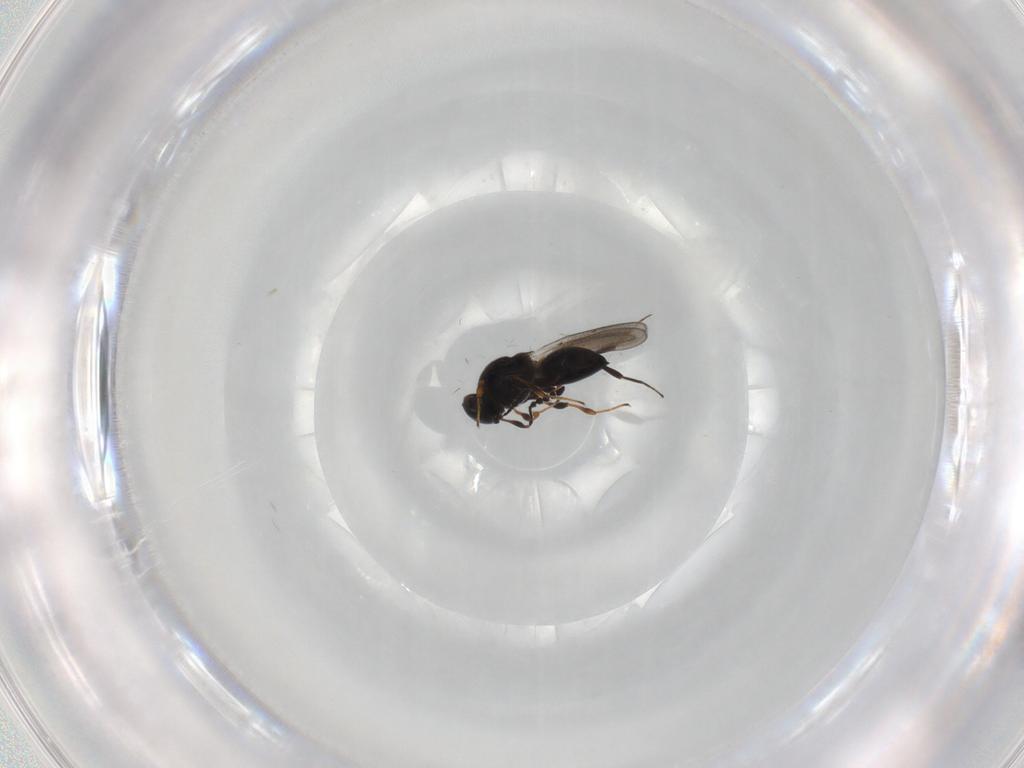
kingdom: Animalia
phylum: Arthropoda
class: Insecta
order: Hymenoptera
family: Platygastridae
